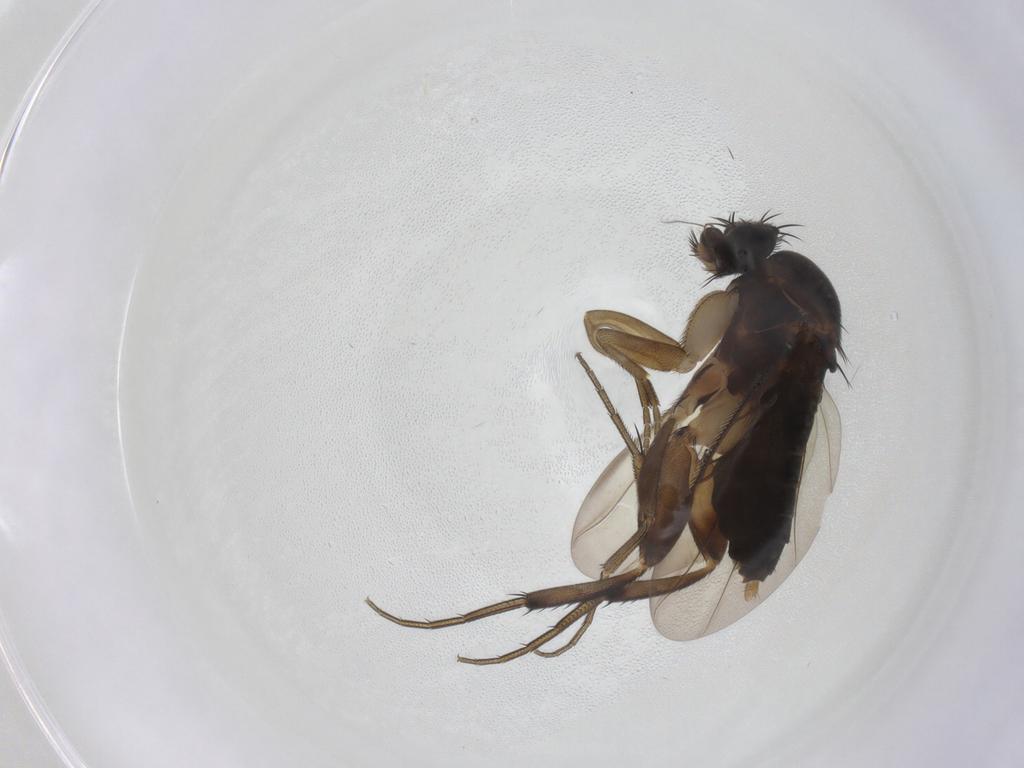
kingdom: Animalia
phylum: Arthropoda
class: Insecta
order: Diptera
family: Phoridae
